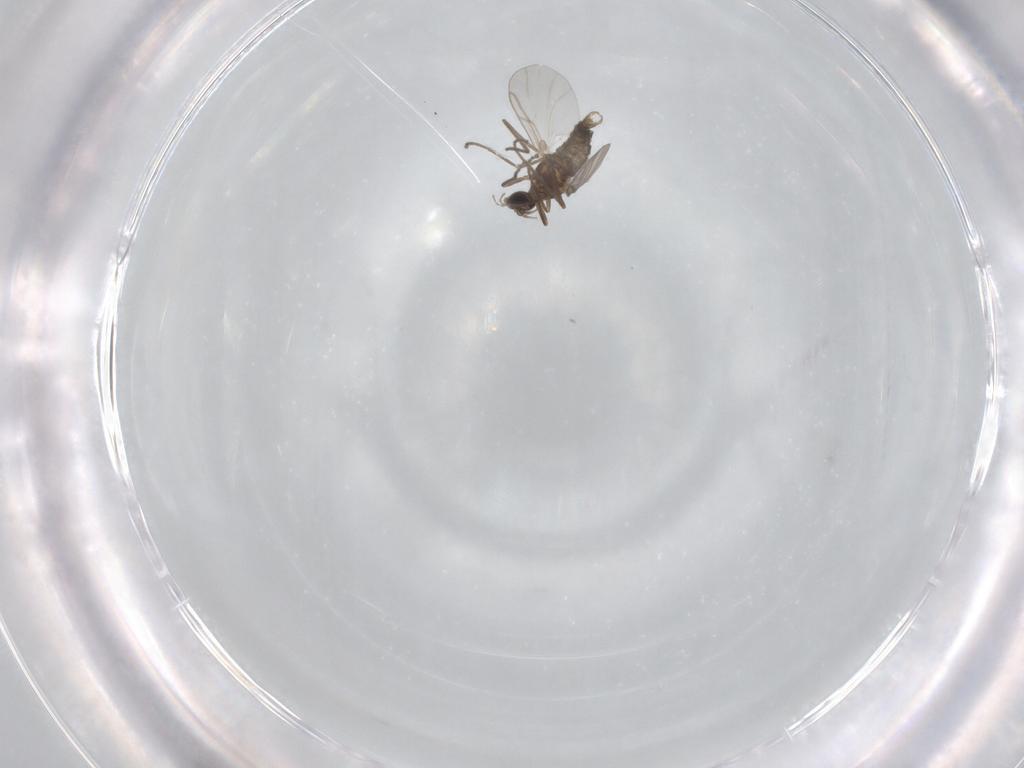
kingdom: Animalia
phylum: Arthropoda
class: Insecta
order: Diptera
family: Cecidomyiidae
